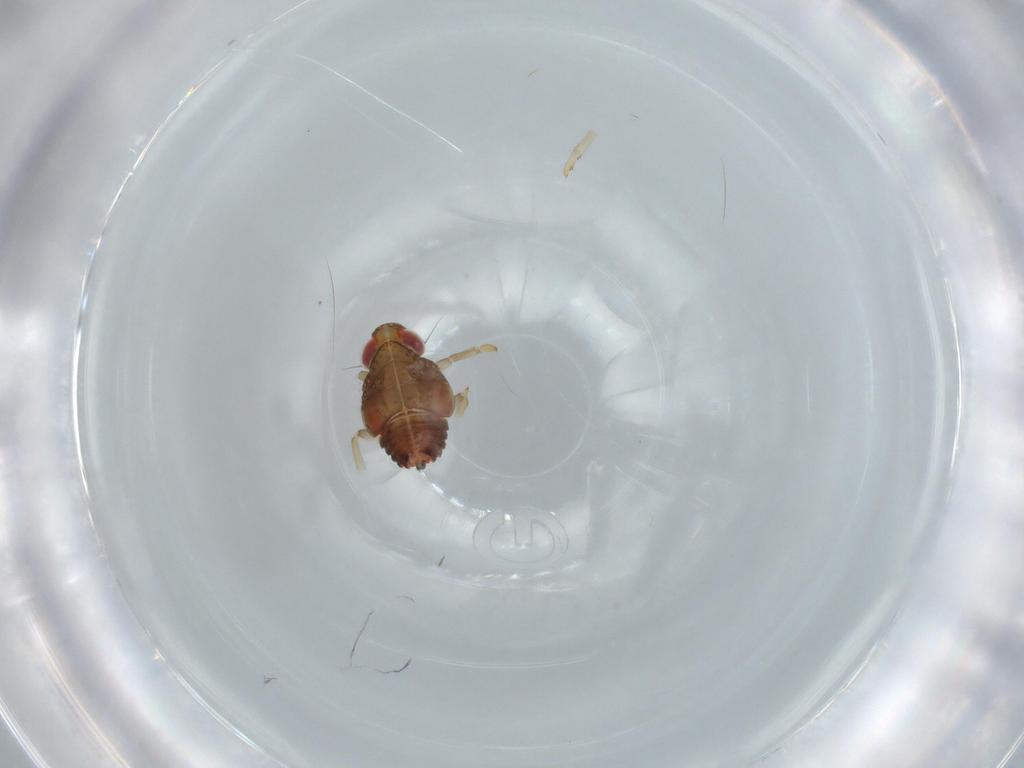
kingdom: Animalia
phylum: Arthropoda
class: Insecta
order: Hemiptera
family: Issidae
